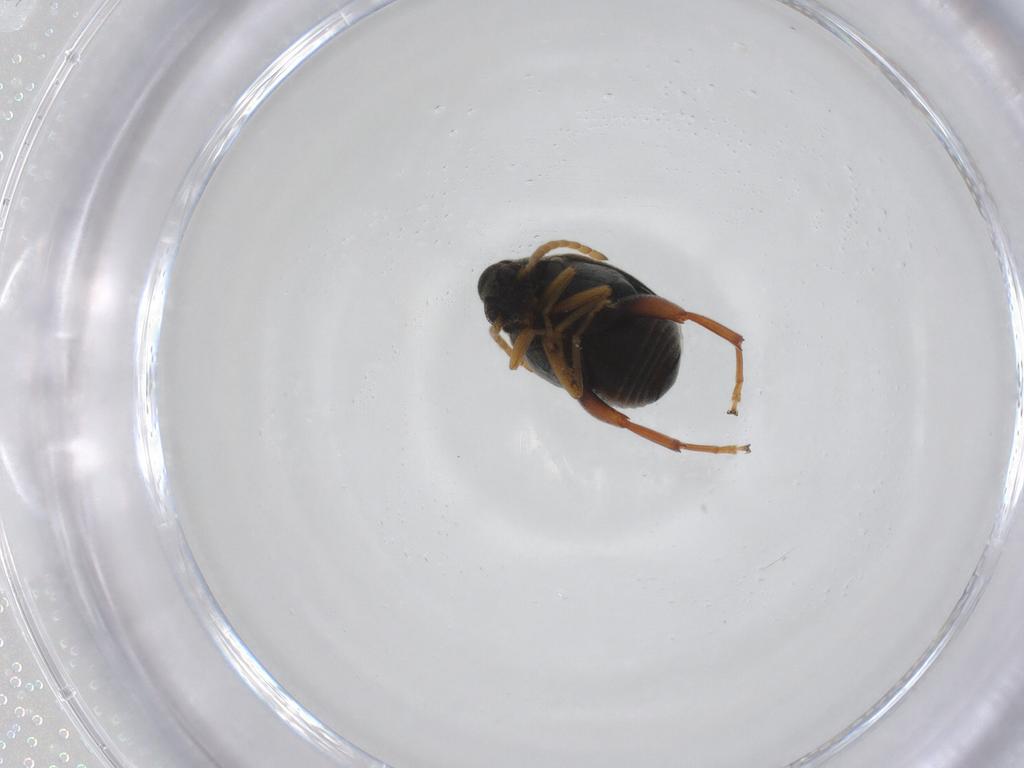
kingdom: Animalia
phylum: Arthropoda
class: Insecta
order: Coleoptera
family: Chrysomelidae
